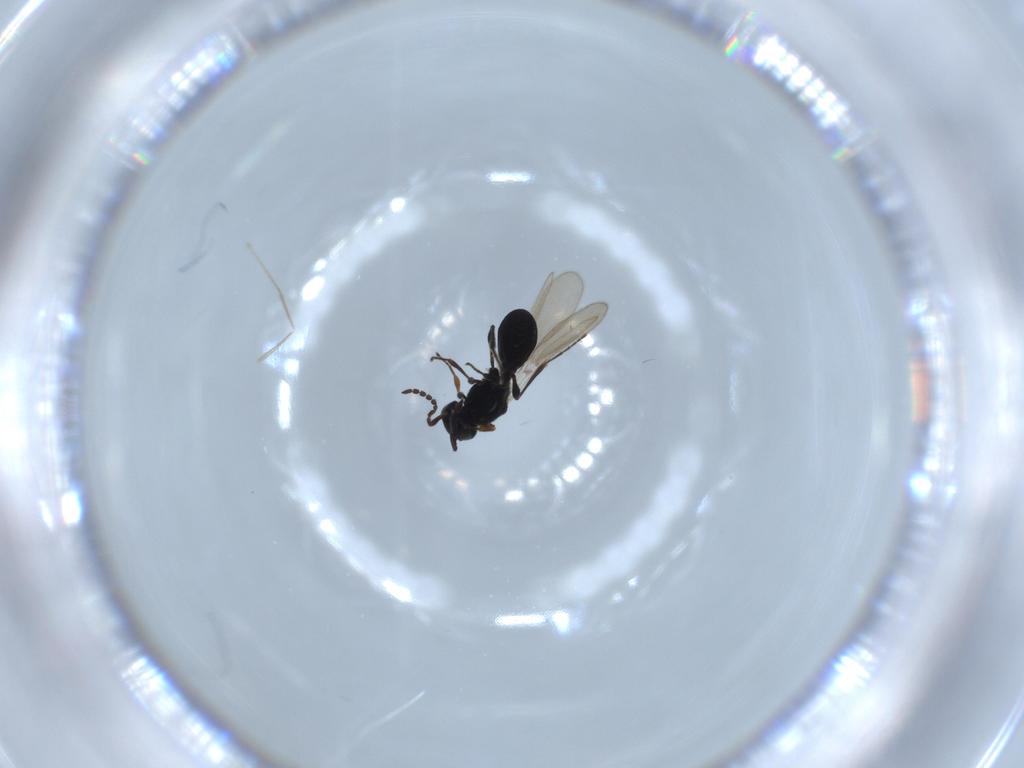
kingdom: Animalia
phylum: Arthropoda
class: Insecta
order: Hymenoptera
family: Platygastridae
